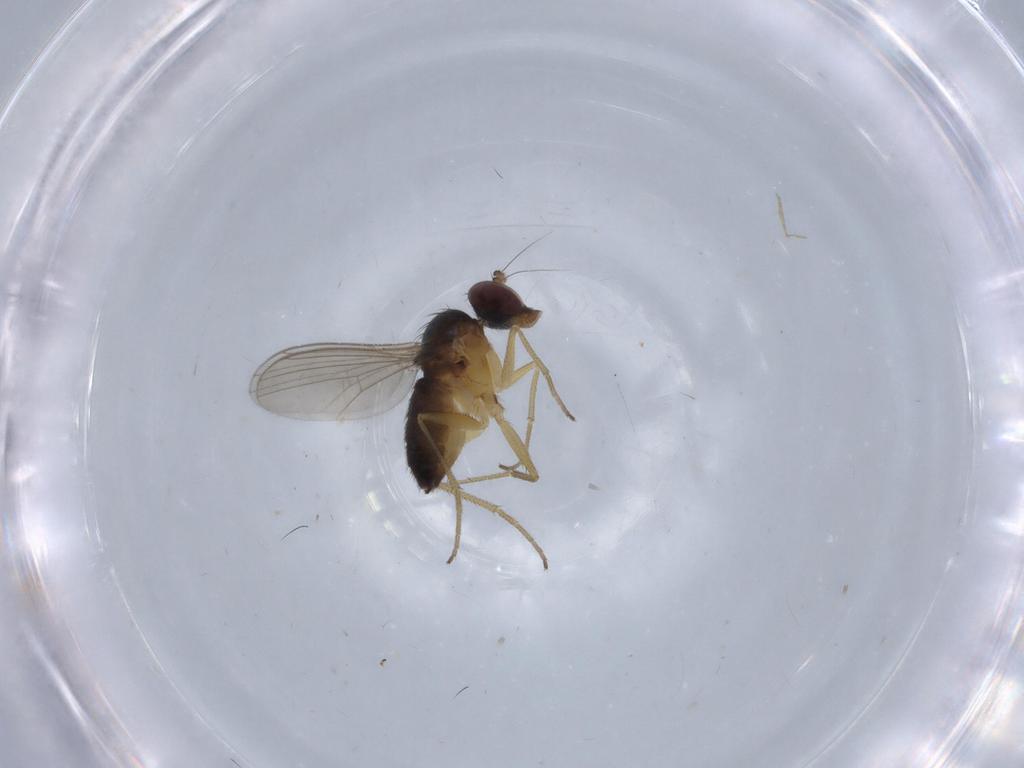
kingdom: Animalia
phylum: Arthropoda
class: Insecta
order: Diptera
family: Dolichopodidae
